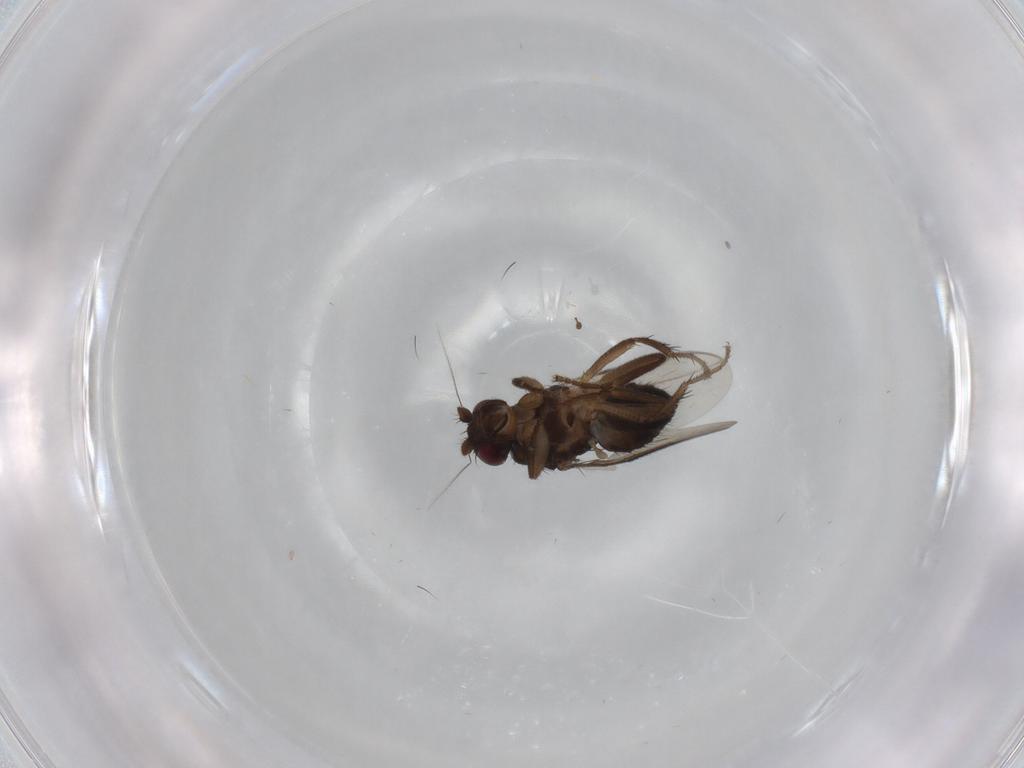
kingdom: Animalia
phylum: Arthropoda
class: Insecta
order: Diptera
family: Sphaeroceridae
